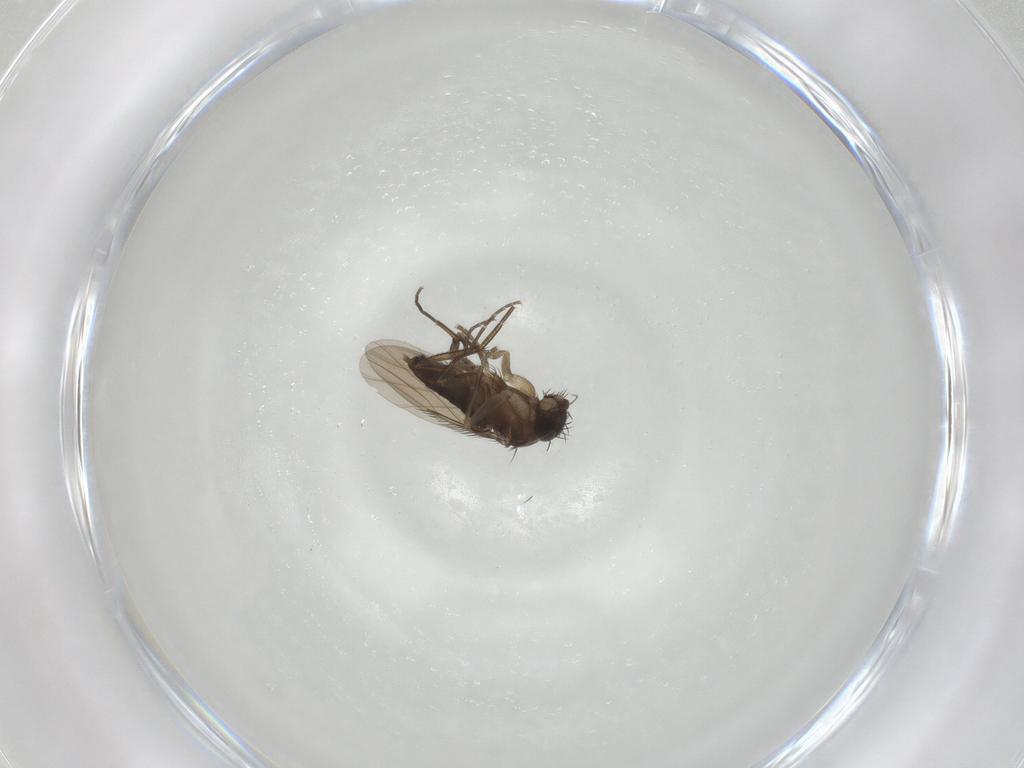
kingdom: Animalia
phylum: Arthropoda
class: Insecta
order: Diptera
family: Phoridae
